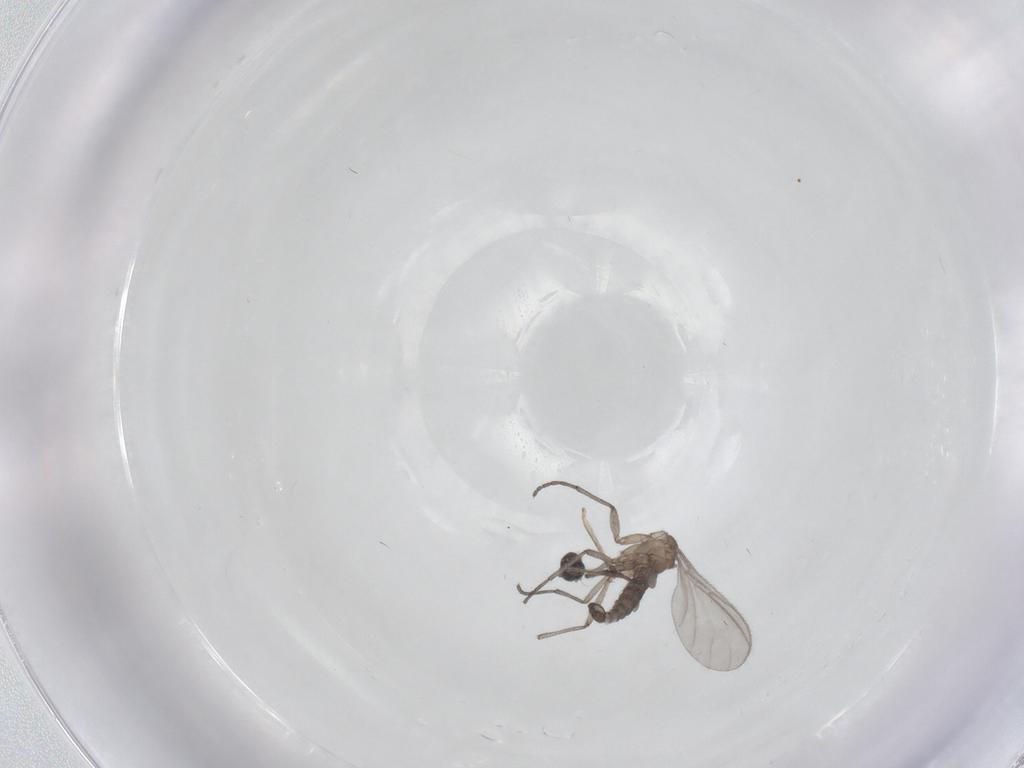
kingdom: Animalia
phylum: Arthropoda
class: Insecta
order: Diptera
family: Sciaridae
